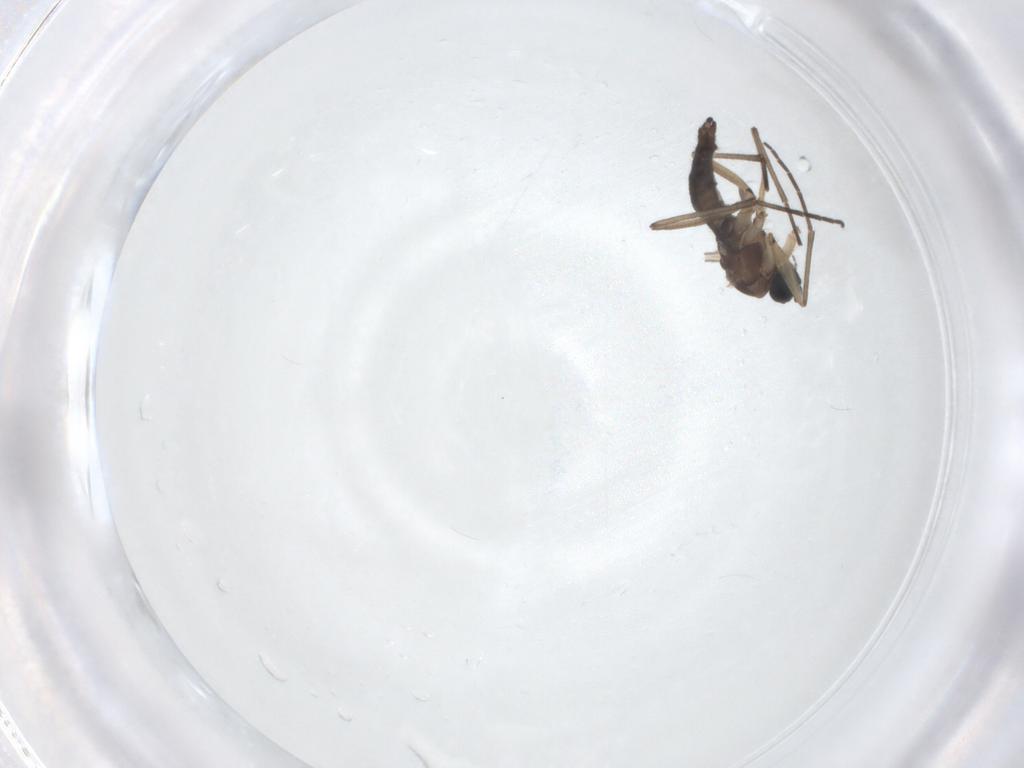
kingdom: Animalia
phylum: Arthropoda
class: Insecta
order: Diptera
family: Sciaridae
